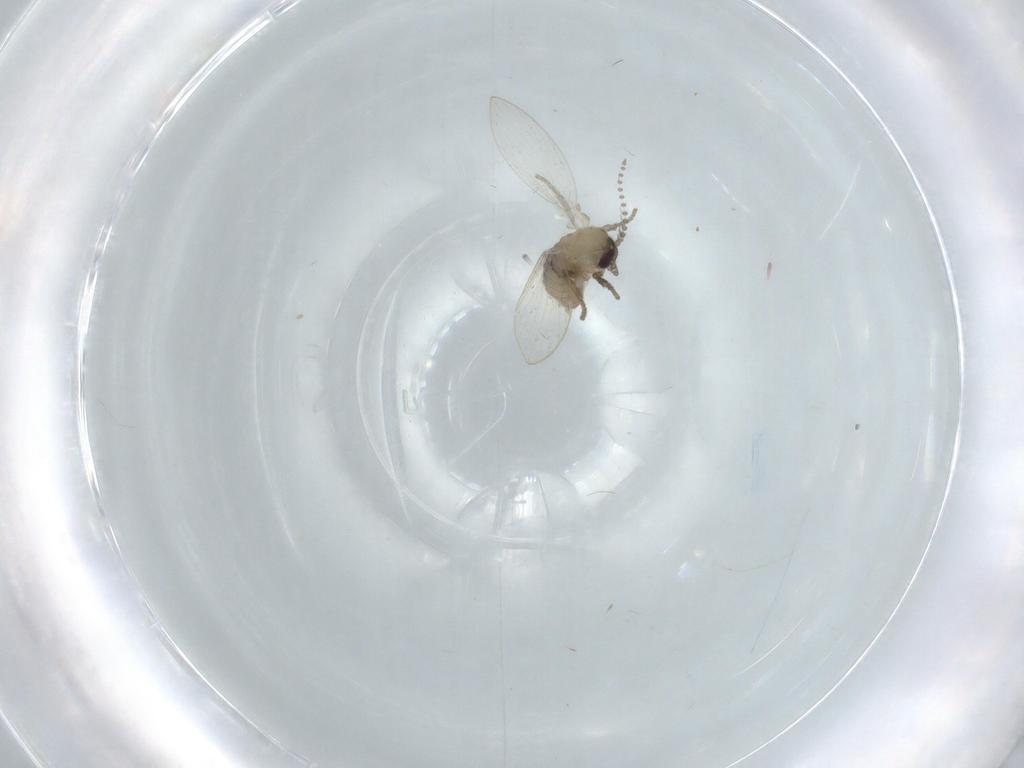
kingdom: Animalia
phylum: Arthropoda
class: Insecta
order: Diptera
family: Psychodidae
